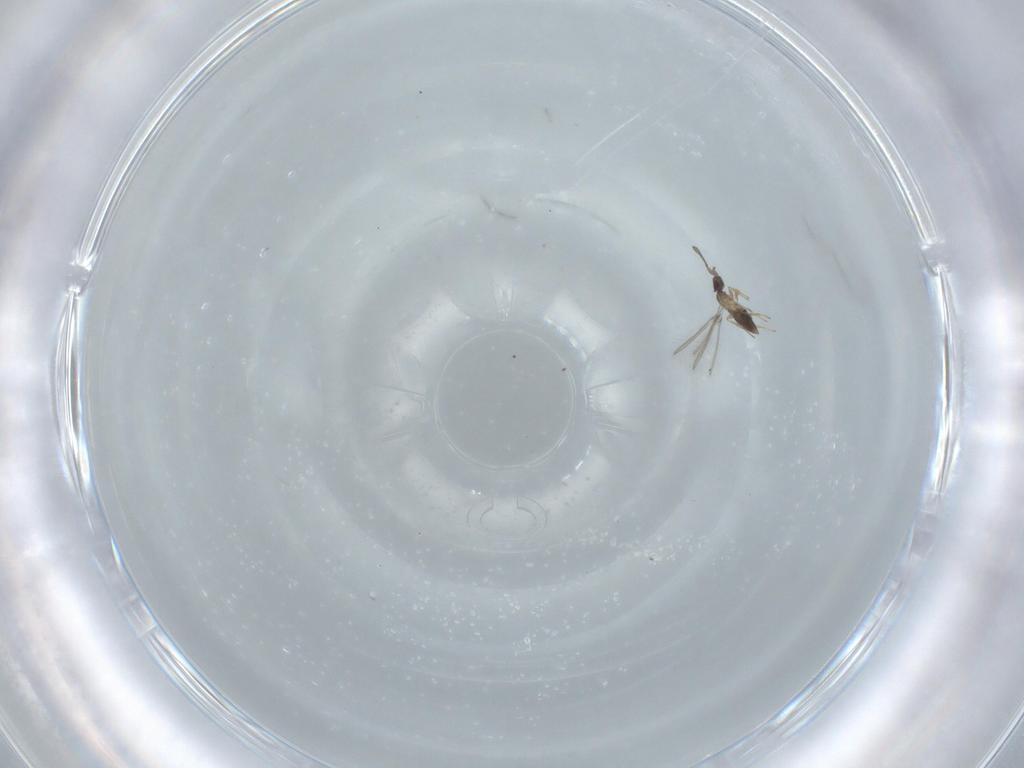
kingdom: Animalia
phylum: Arthropoda
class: Insecta
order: Hymenoptera
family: Mymaridae
